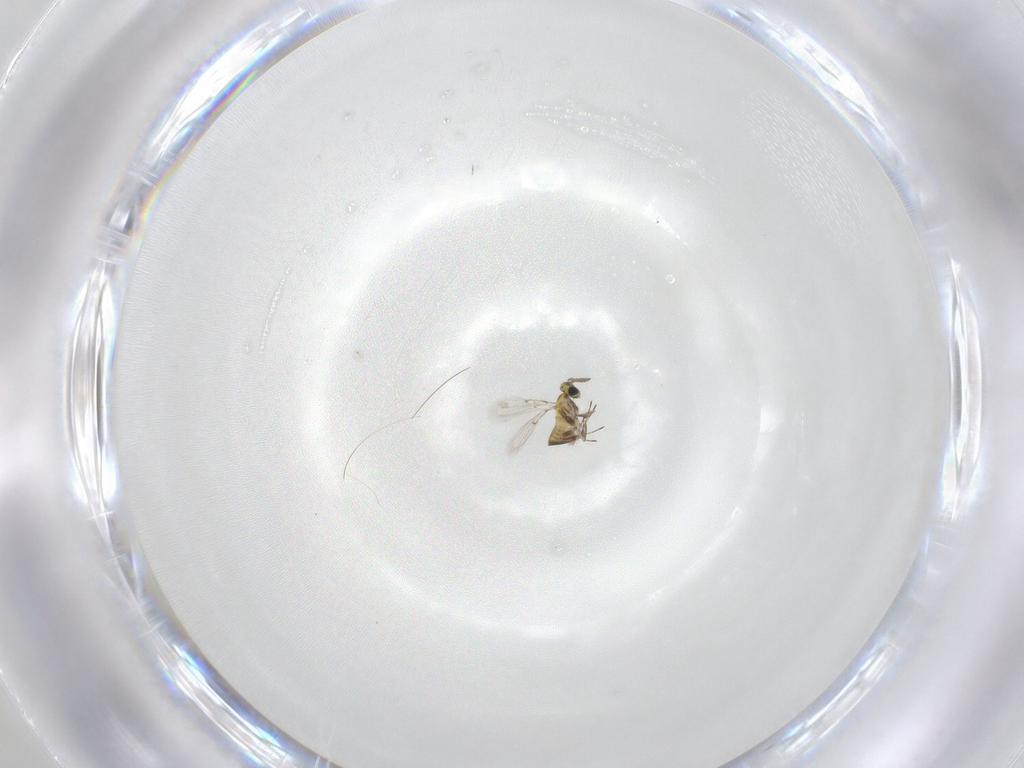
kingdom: Animalia
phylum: Arthropoda
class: Insecta
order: Hymenoptera
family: Trichogrammatidae
